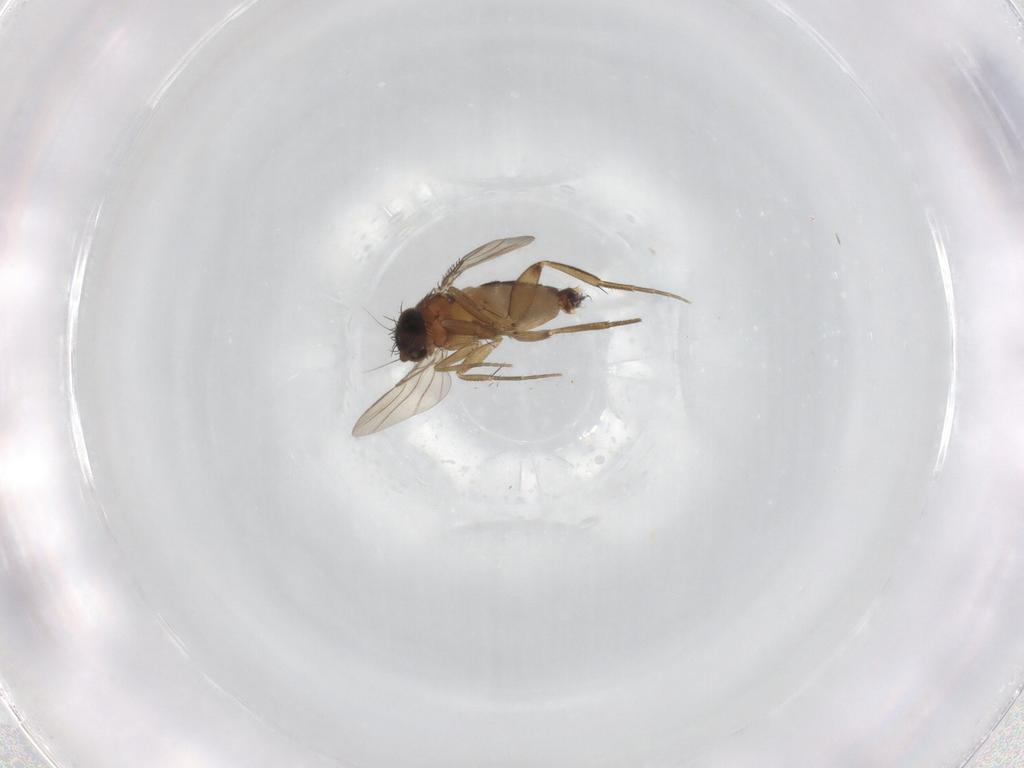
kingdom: Animalia
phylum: Arthropoda
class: Insecta
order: Diptera
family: Phoridae
